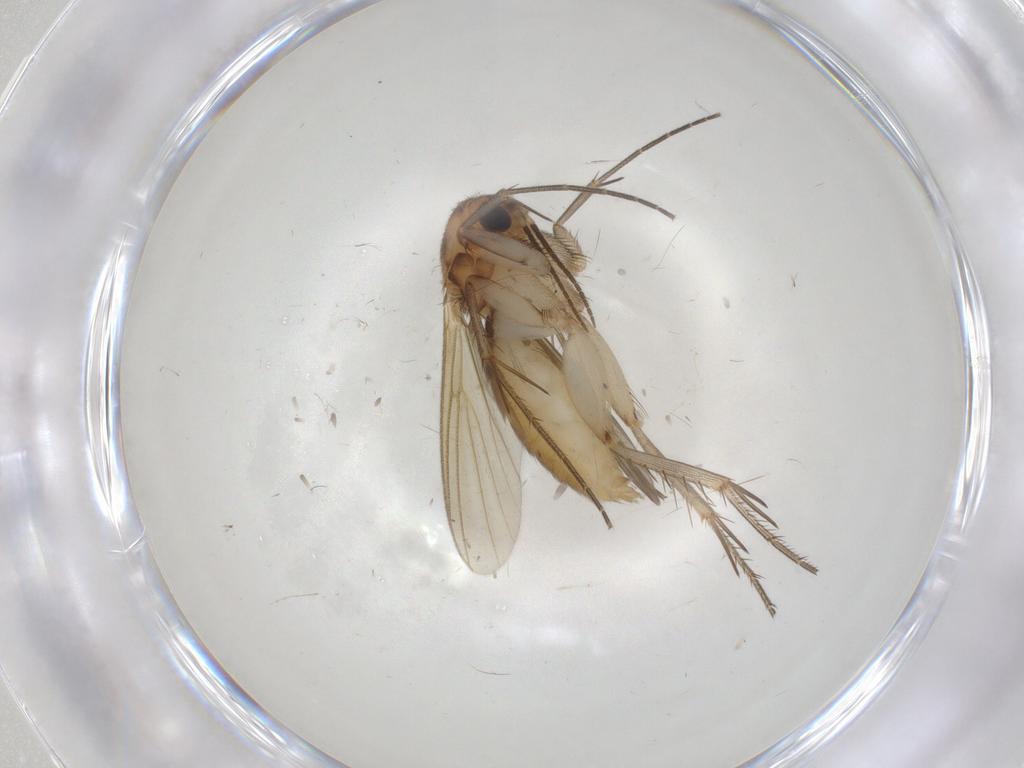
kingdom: Animalia
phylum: Arthropoda
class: Insecta
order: Diptera
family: Mycetophilidae
